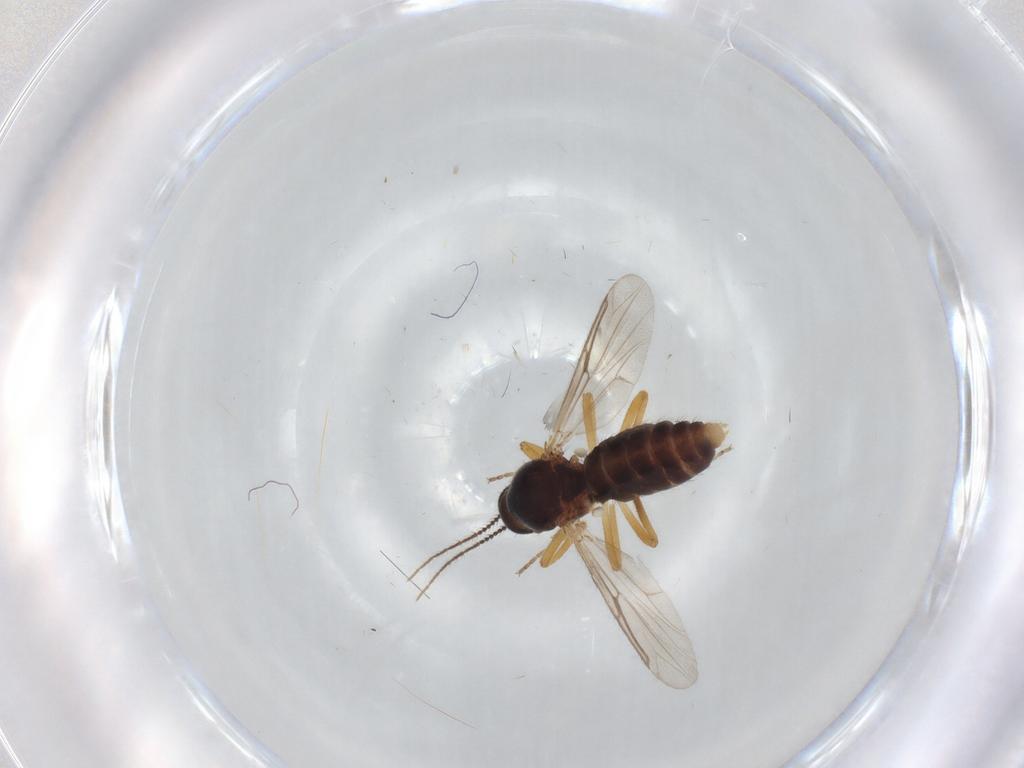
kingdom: Animalia
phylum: Arthropoda
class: Insecta
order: Diptera
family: Ceratopogonidae
